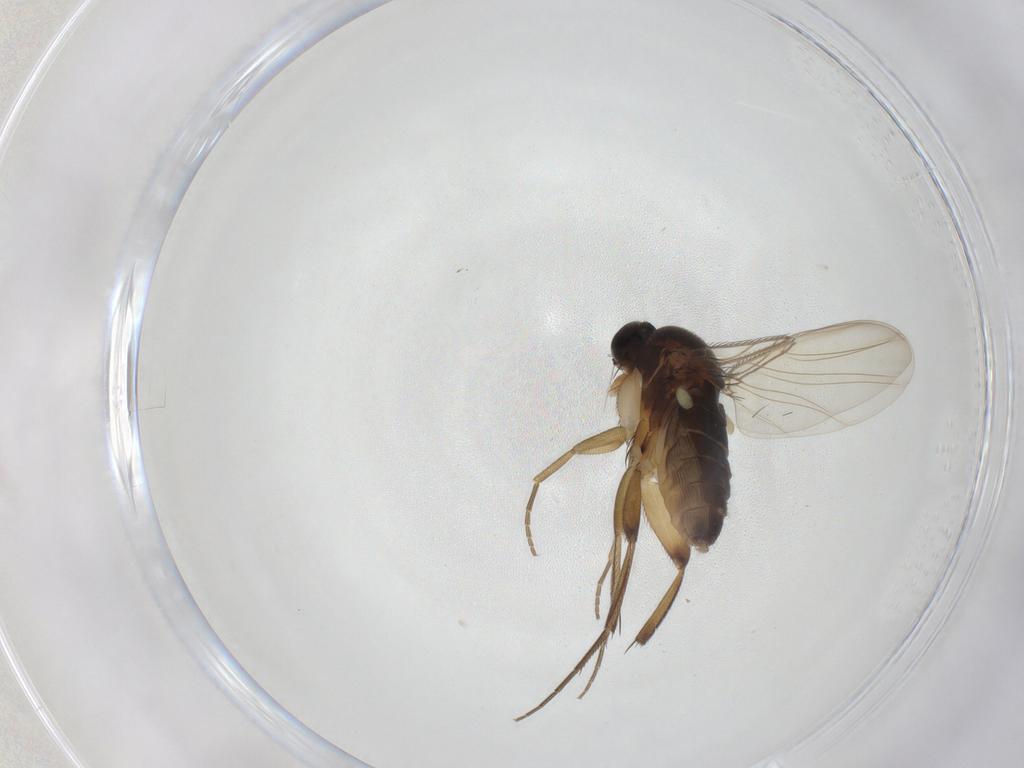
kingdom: Animalia
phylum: Arthropoda
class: Insecta
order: Diptera
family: Phoridae
